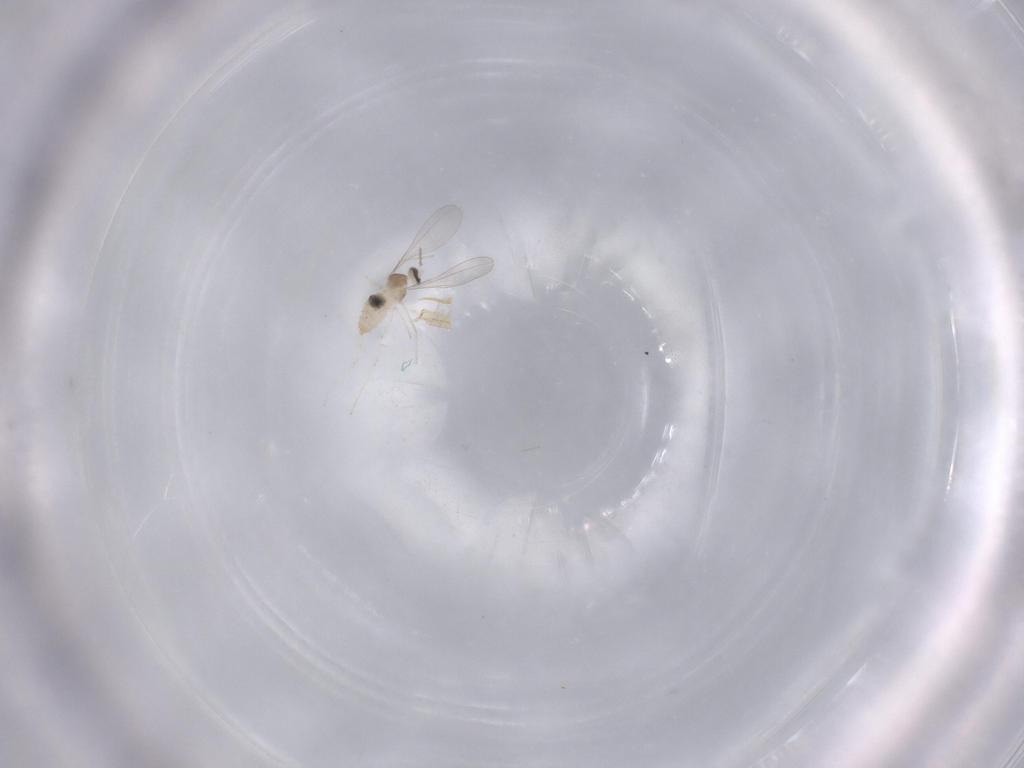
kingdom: Animalia
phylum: Arthropoda
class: Insecta
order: Diptera
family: Cecidomyiidae
